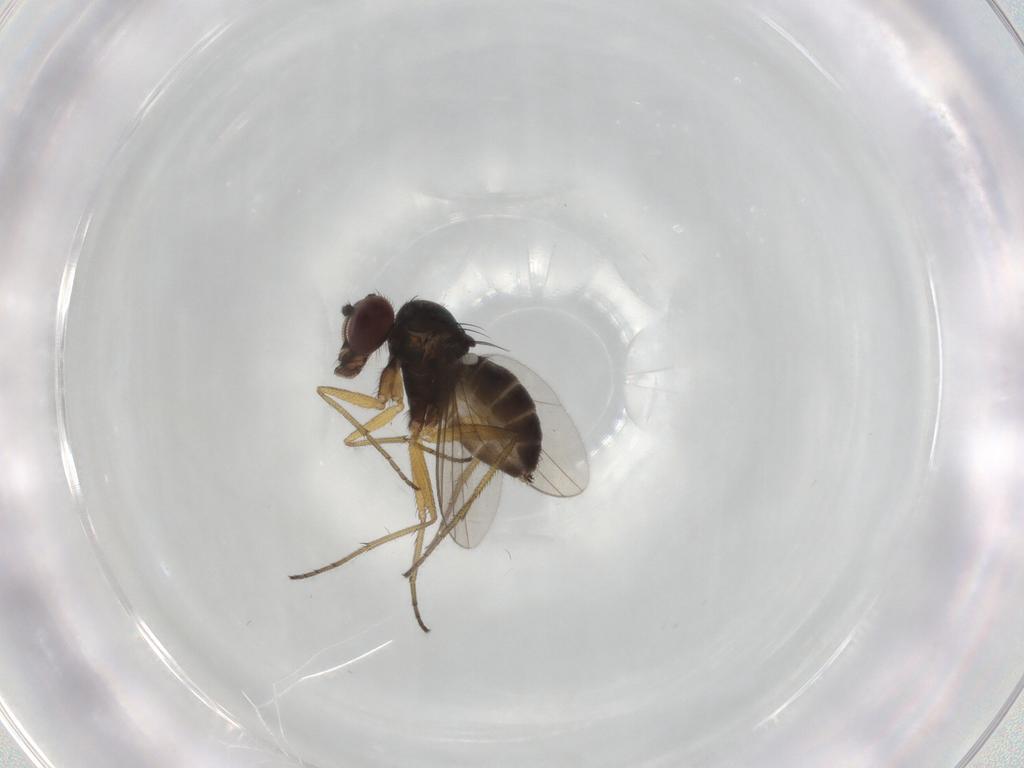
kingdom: Animalia
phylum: Arthropoda
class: Insecta
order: Diptera
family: Dolichopodidae
